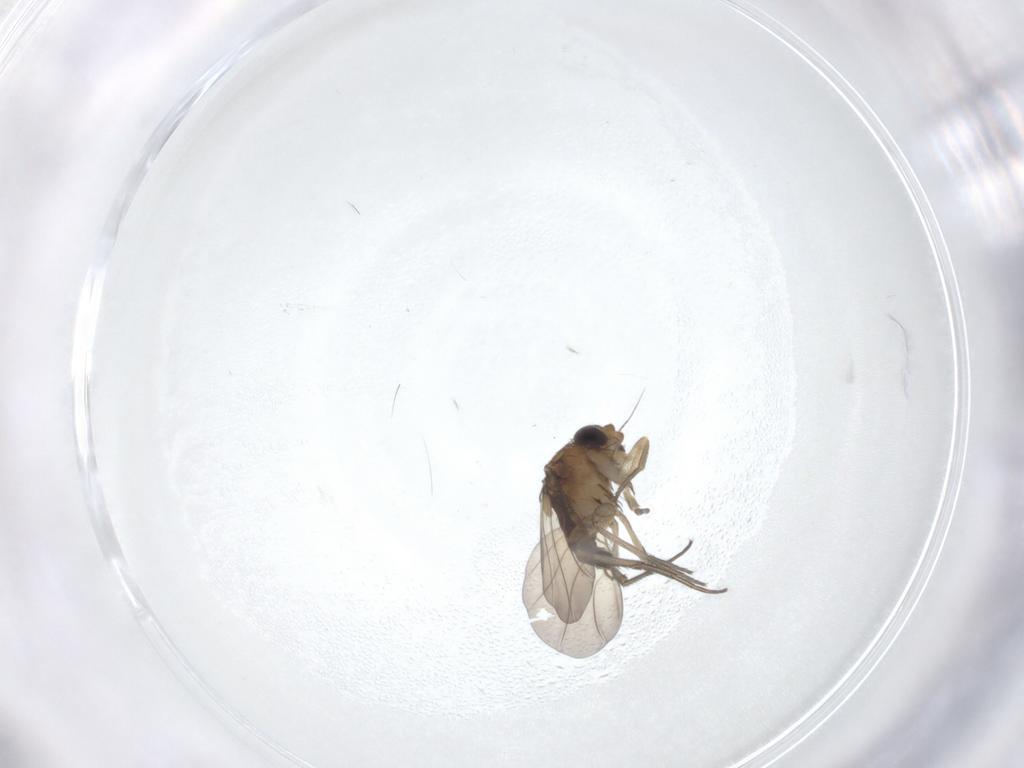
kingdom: Animalia
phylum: Arthropoda
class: Insecta
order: Diptera
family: Phoridae
